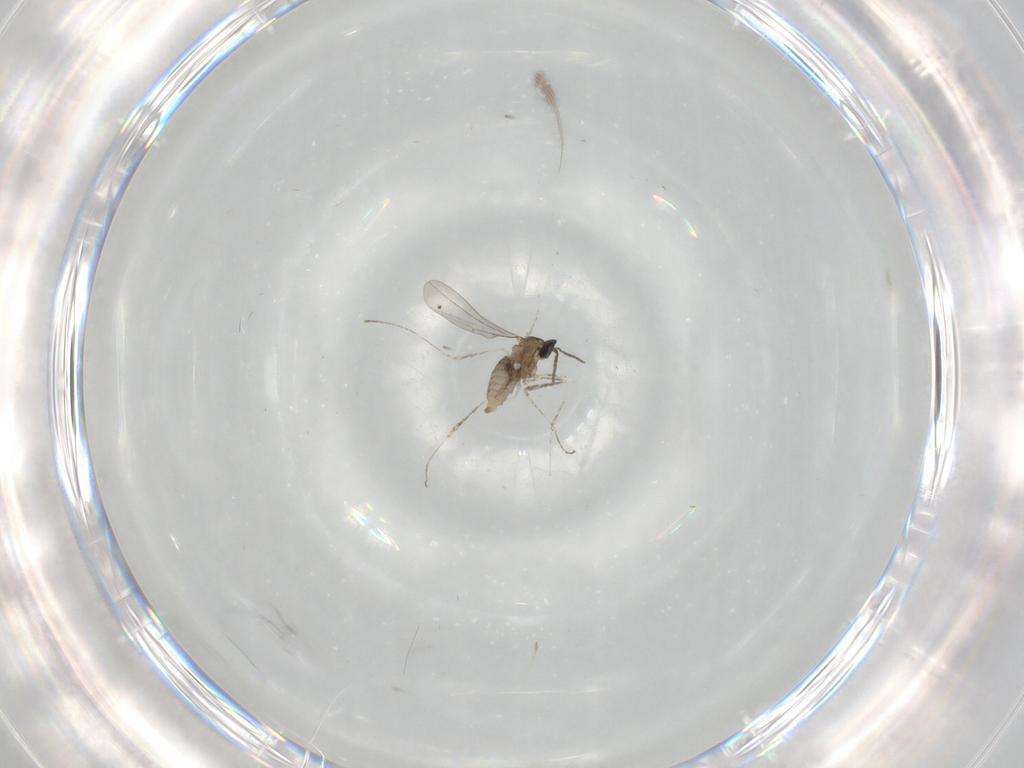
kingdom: Animalia
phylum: Arthropoda
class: Insecta
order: Diptera
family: Cecidomyiidae
